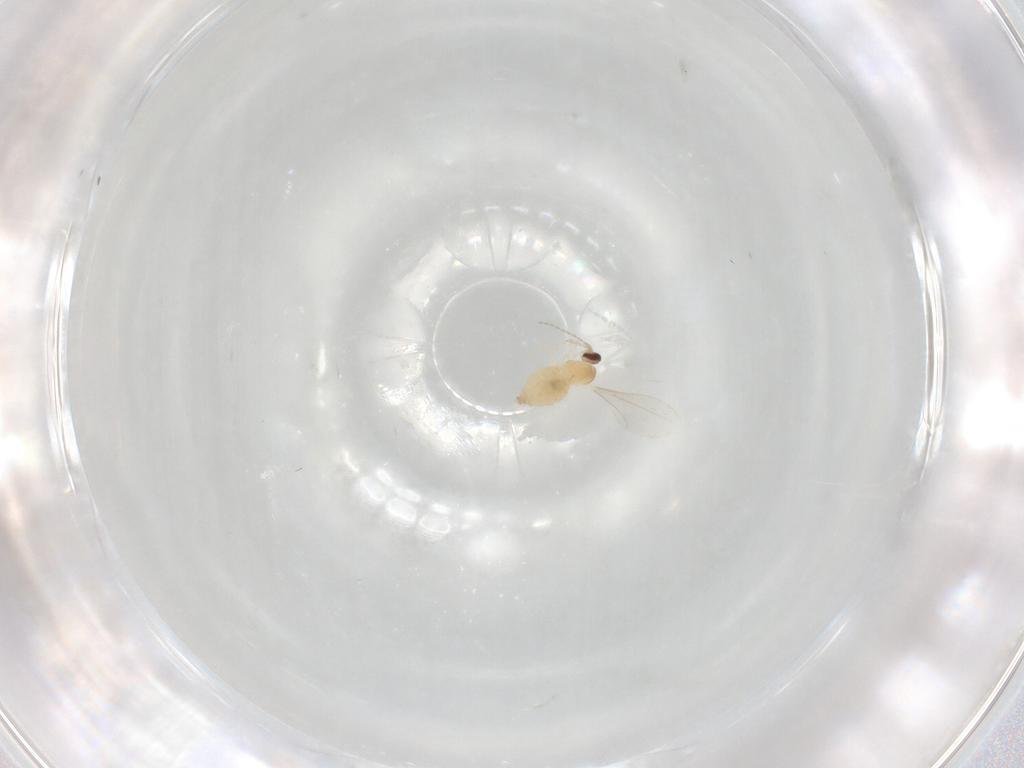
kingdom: Animalia
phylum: Arthropoda
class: Insecta
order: Diptera
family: Cecidomyiidae
